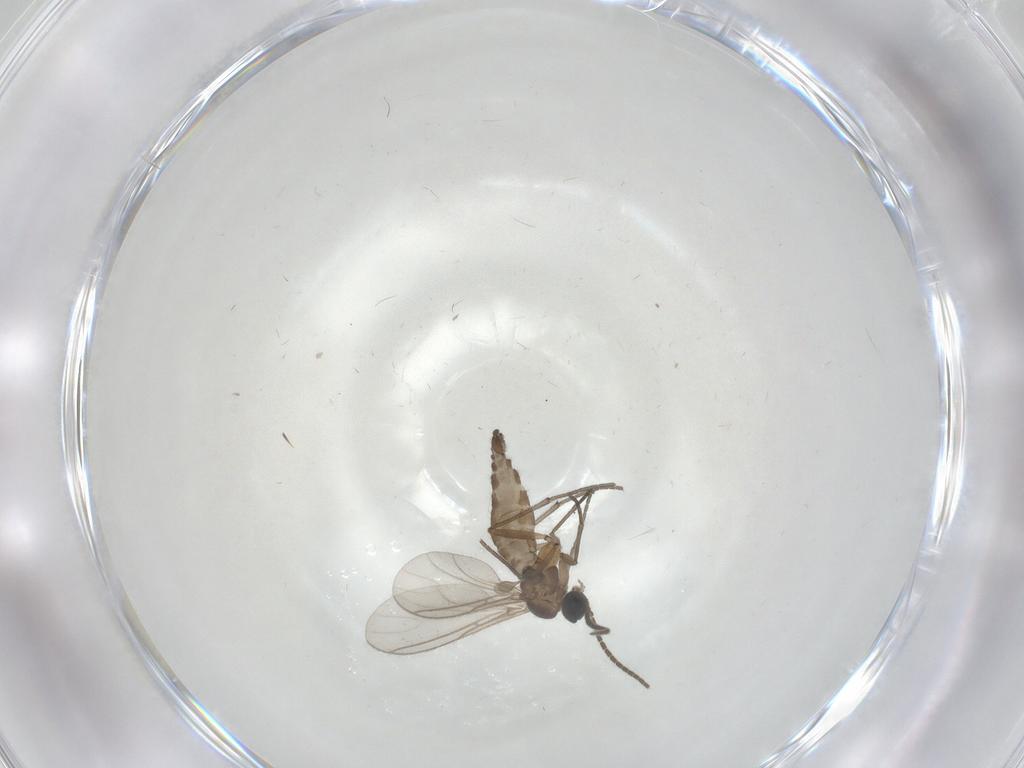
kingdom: Animalia
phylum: Arthropoda
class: Insecta
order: Diptera
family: Sciaridae
